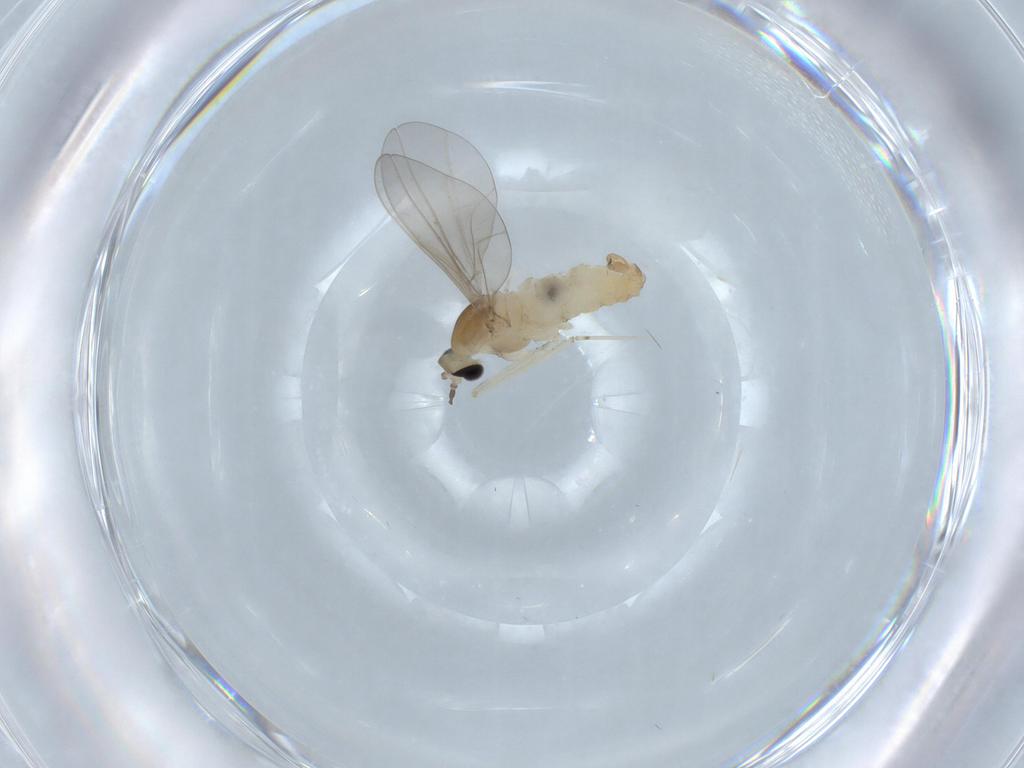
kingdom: Animalia
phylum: Arthropoda
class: Insecta
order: Diptera
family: Cecidomyiidae
